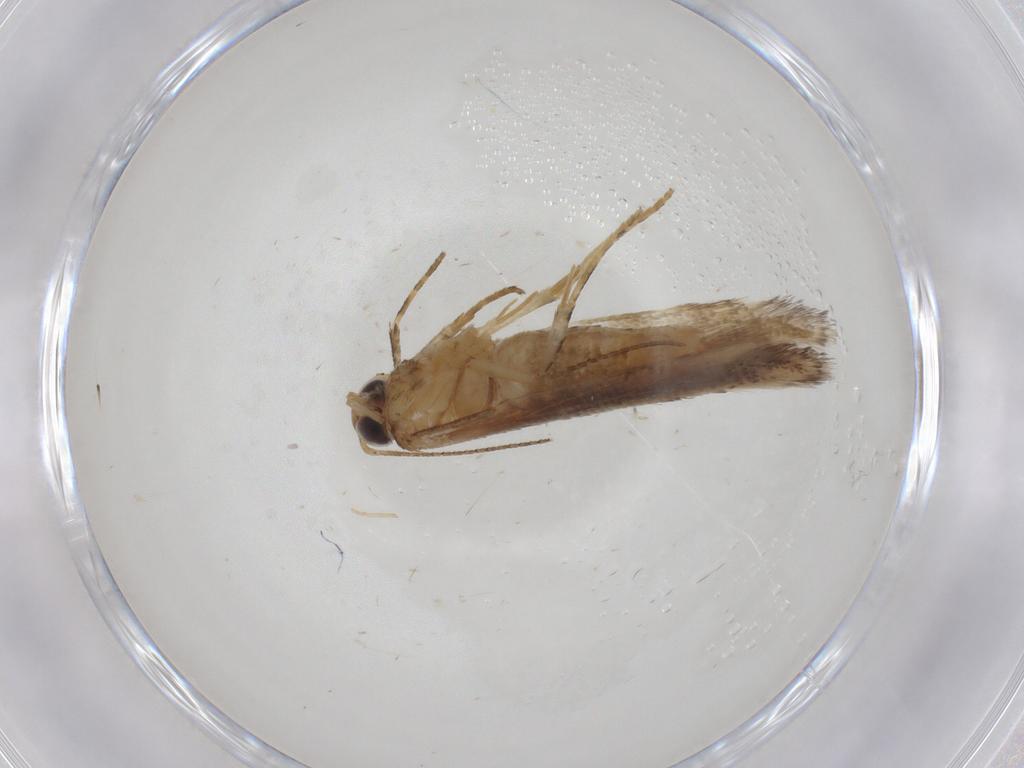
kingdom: Animalia
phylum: Arthropoda
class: Insecta
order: Lepidoptera
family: Gelechiidae
